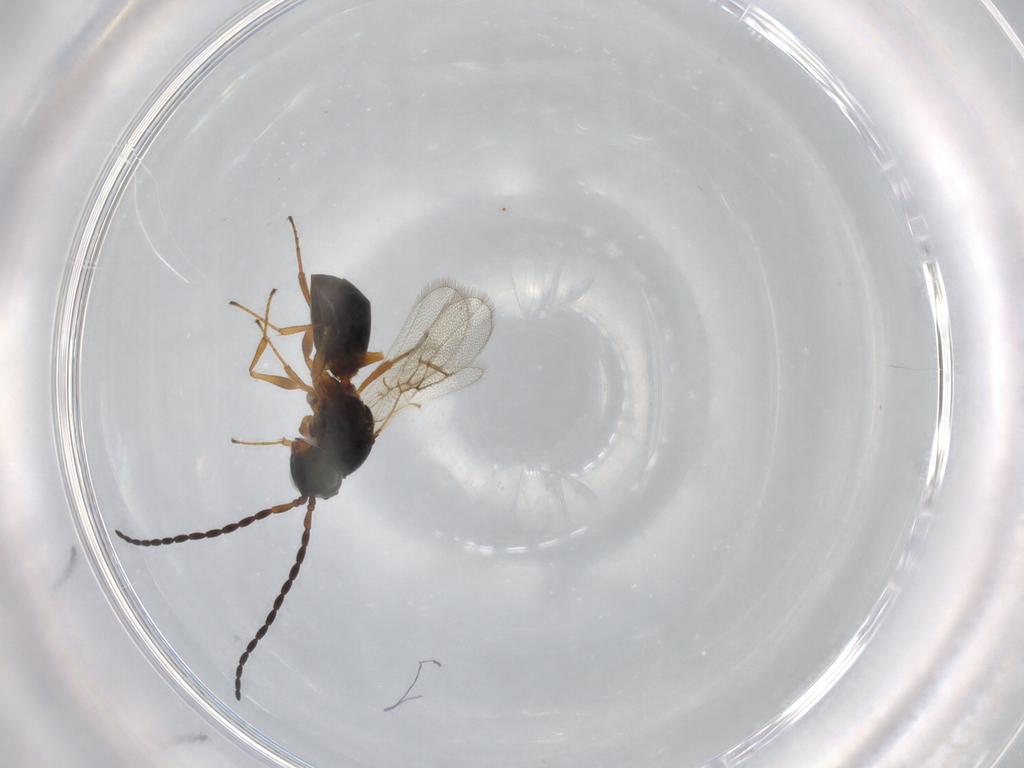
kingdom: Animalia
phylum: Arthropoda
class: Insecta
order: Hymenoptera
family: Figitidae
